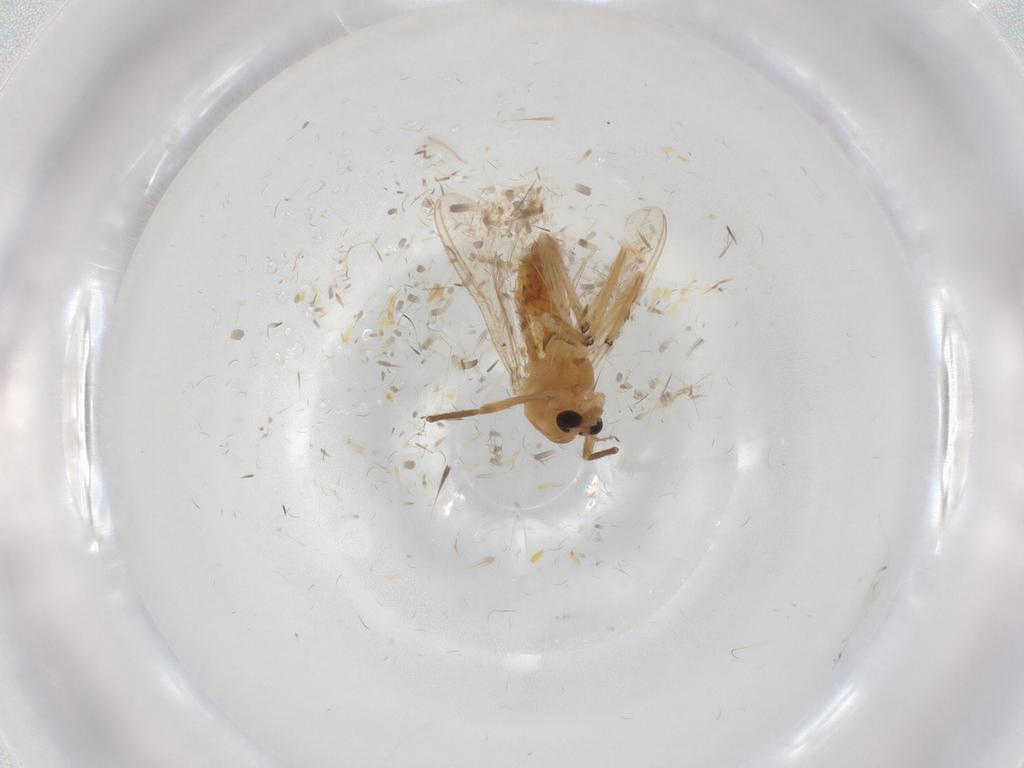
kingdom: Animalia
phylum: Arthropoda
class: Insecta
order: Diptera
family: Chironomidae
